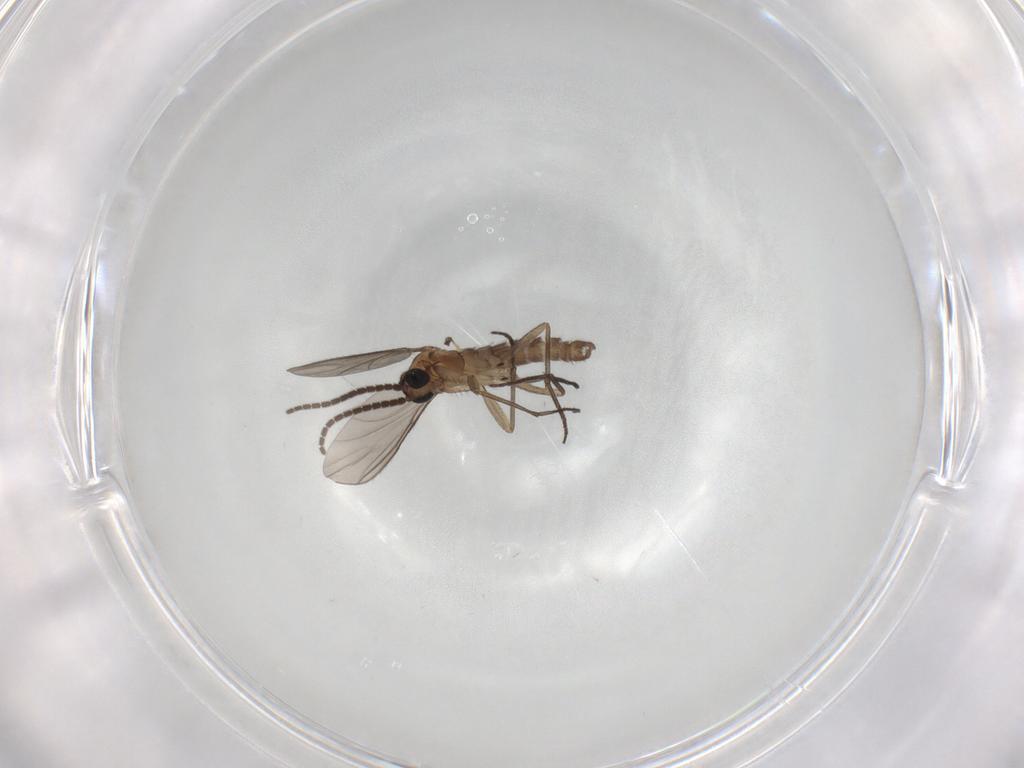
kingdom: Animalia
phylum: Arthropoda
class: Insecta
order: Diptera
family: Sciaridae
